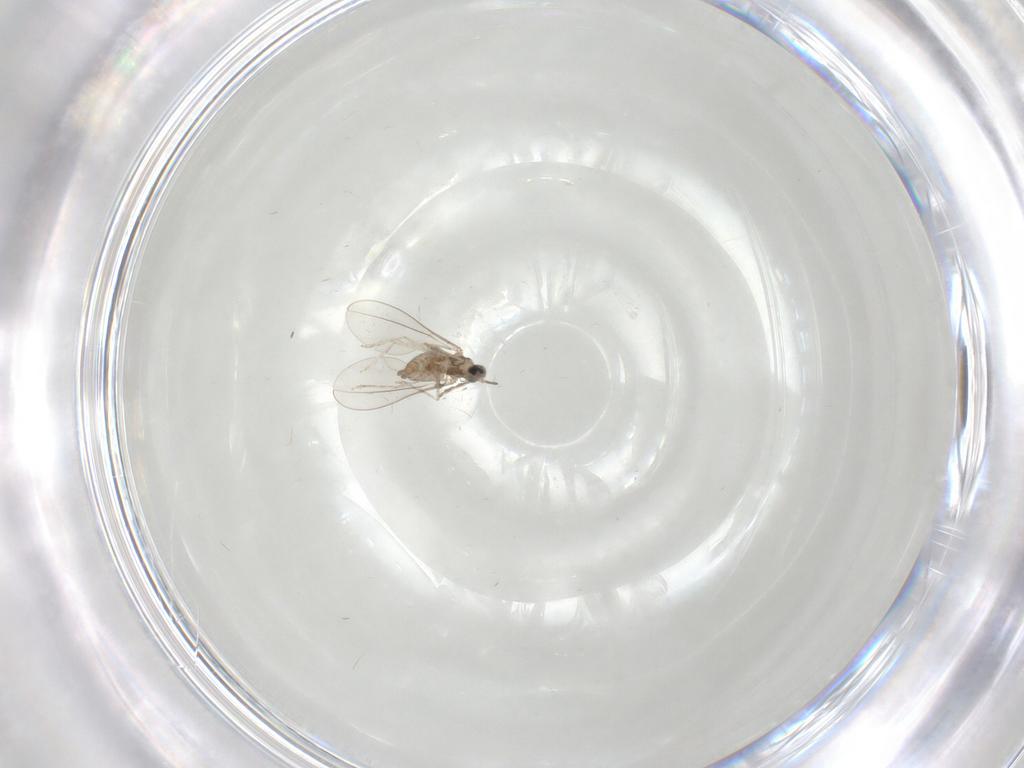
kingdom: Animalia
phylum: Arthropoda
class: Insecta
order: Diptera
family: Cecidomyiidae
